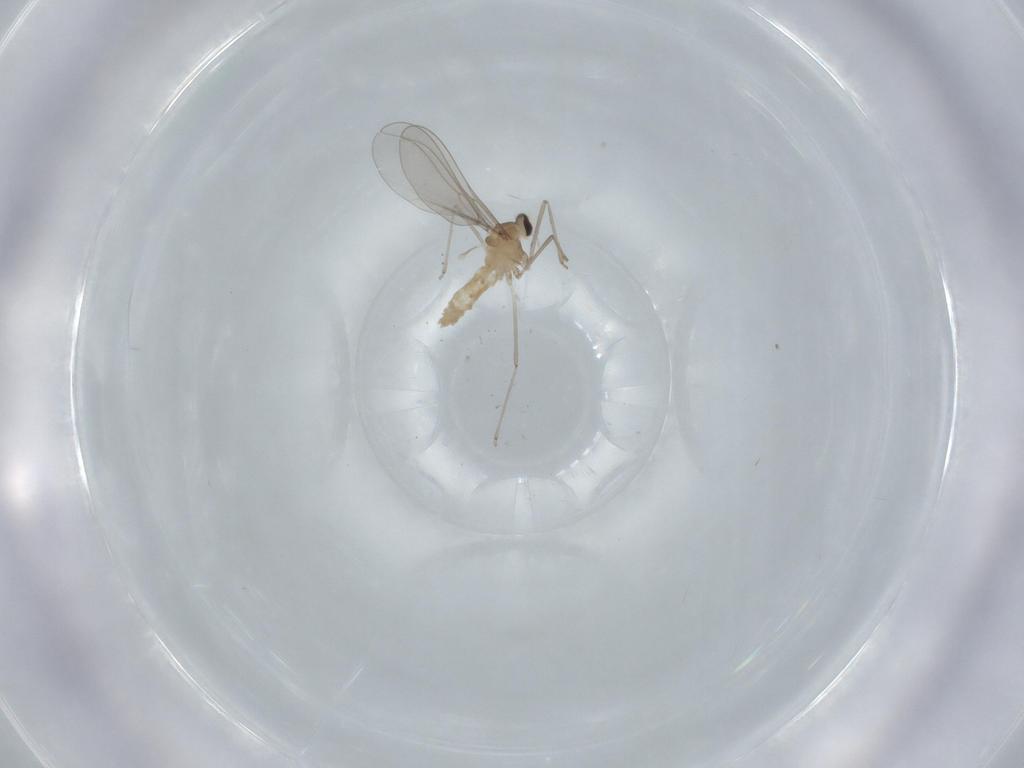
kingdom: Animalia
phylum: Arthropoda
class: Insecta
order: Diptera
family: Cecidomyiidae
